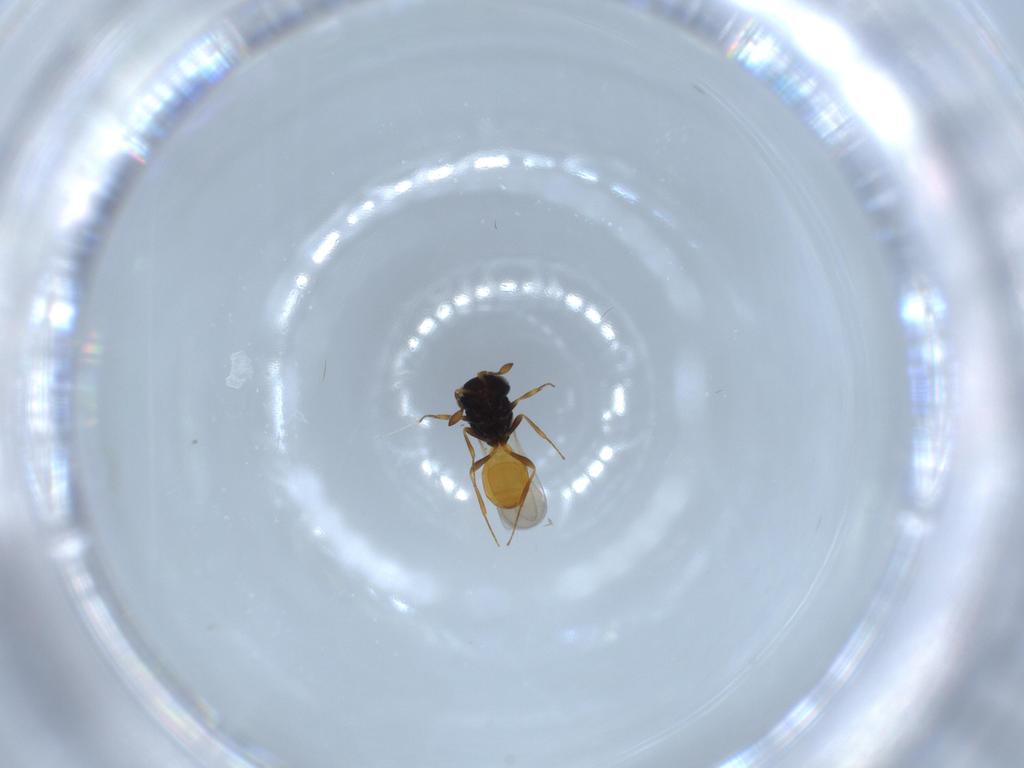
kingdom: Animalia
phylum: Arthropoda
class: Insecta
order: Hymenoptera
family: Scelionidae
